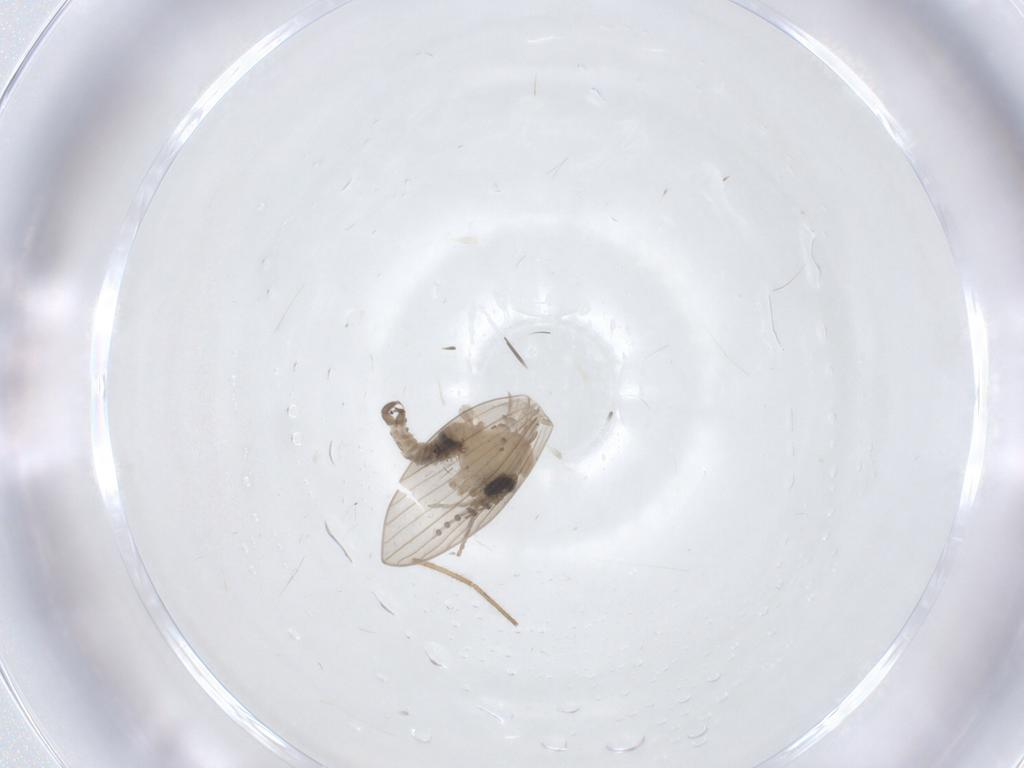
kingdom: Animalia
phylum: Arthropoda
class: Insecta
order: Diptera
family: Psychodidae
